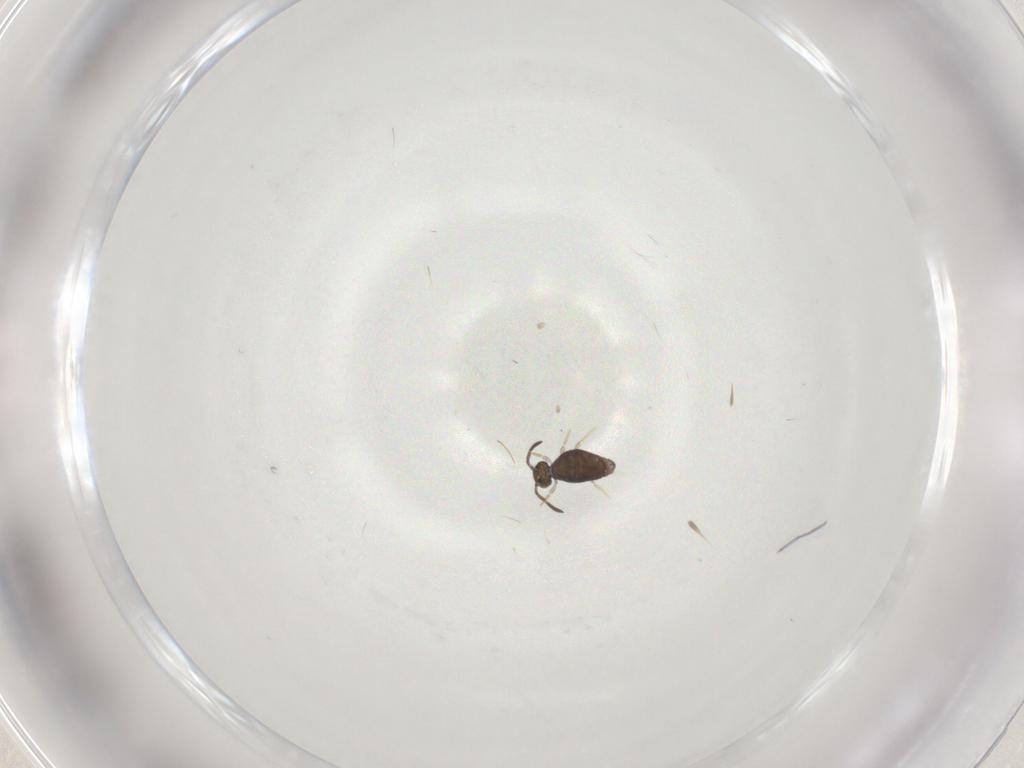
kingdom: Animalia
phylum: Arthropoda
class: Collembola
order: Symphypleona
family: Katiannidae
